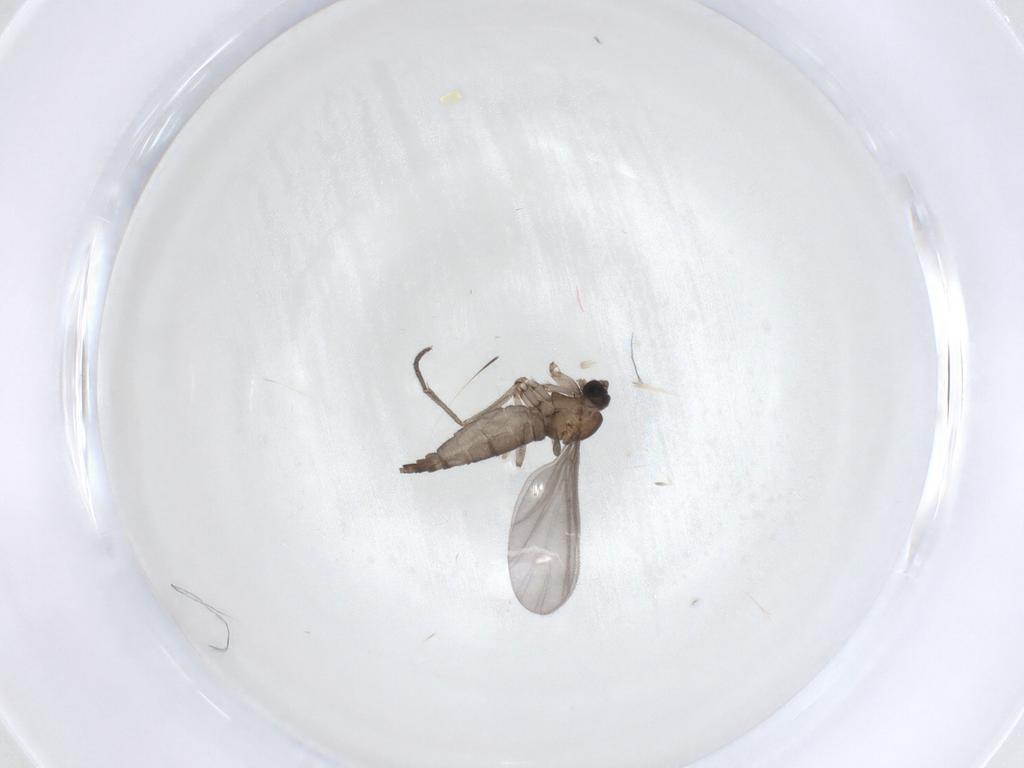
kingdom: Animalia
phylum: Arthropoda
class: Insecta
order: Diptera
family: Sciaridae
